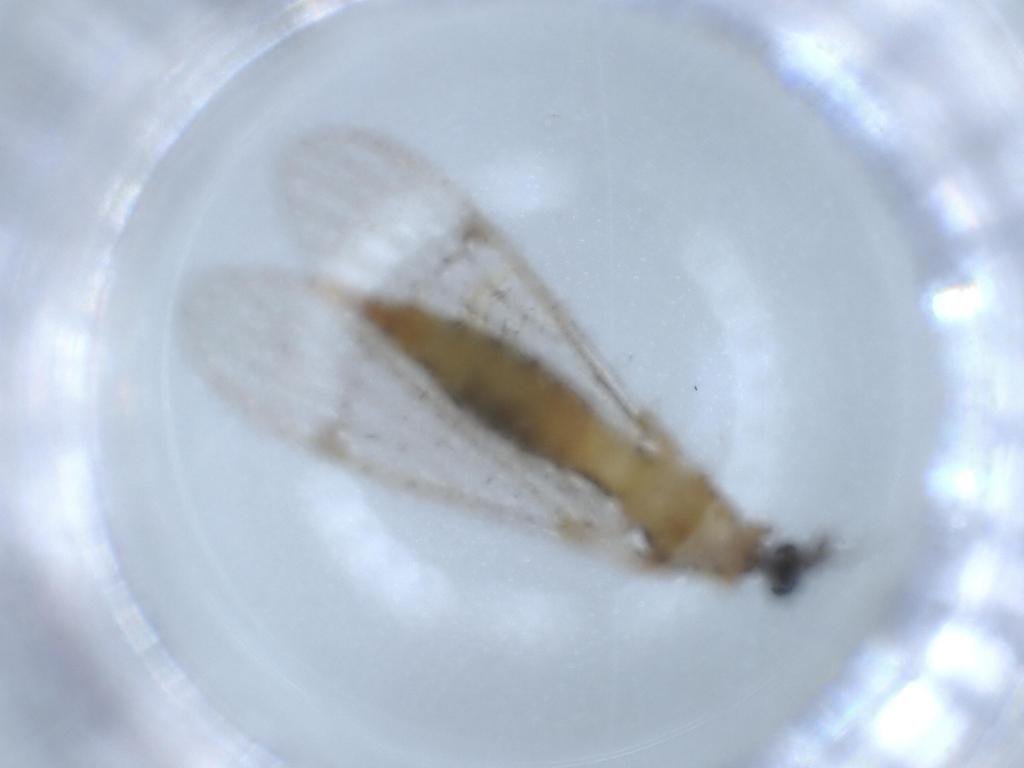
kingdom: Animalia
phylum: Arthropoda
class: Insecta
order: Diptera
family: Limoniidae
